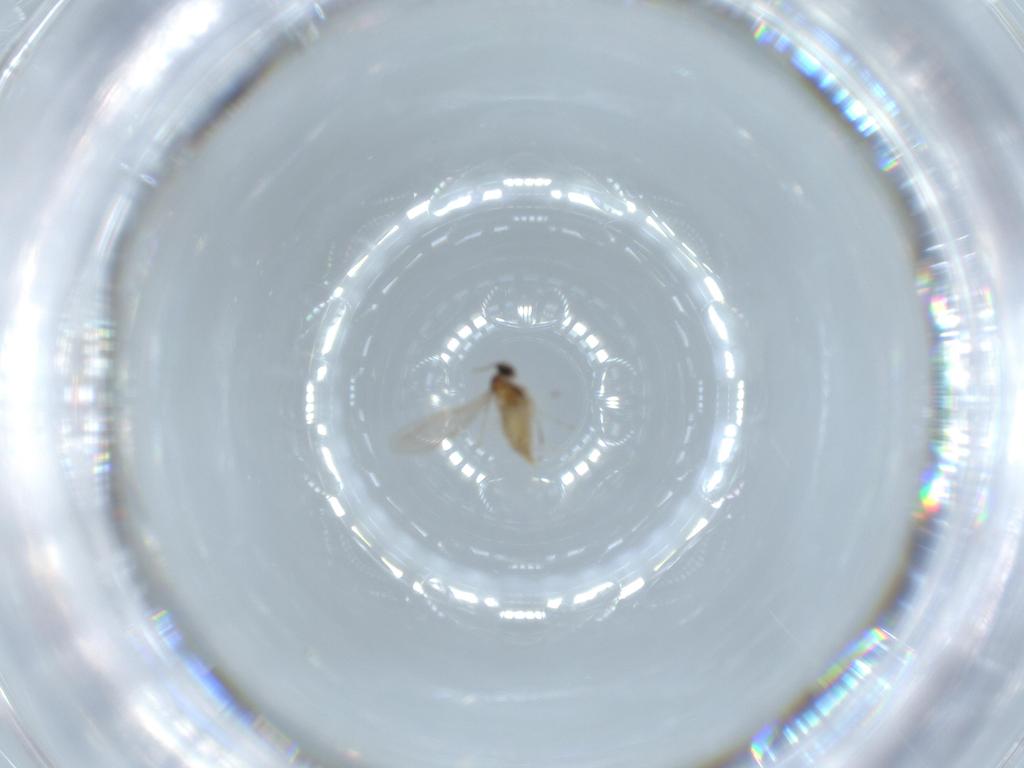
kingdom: Animalia
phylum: Arthropoda
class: Insecta
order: Diptera
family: Cecidomyiidae
